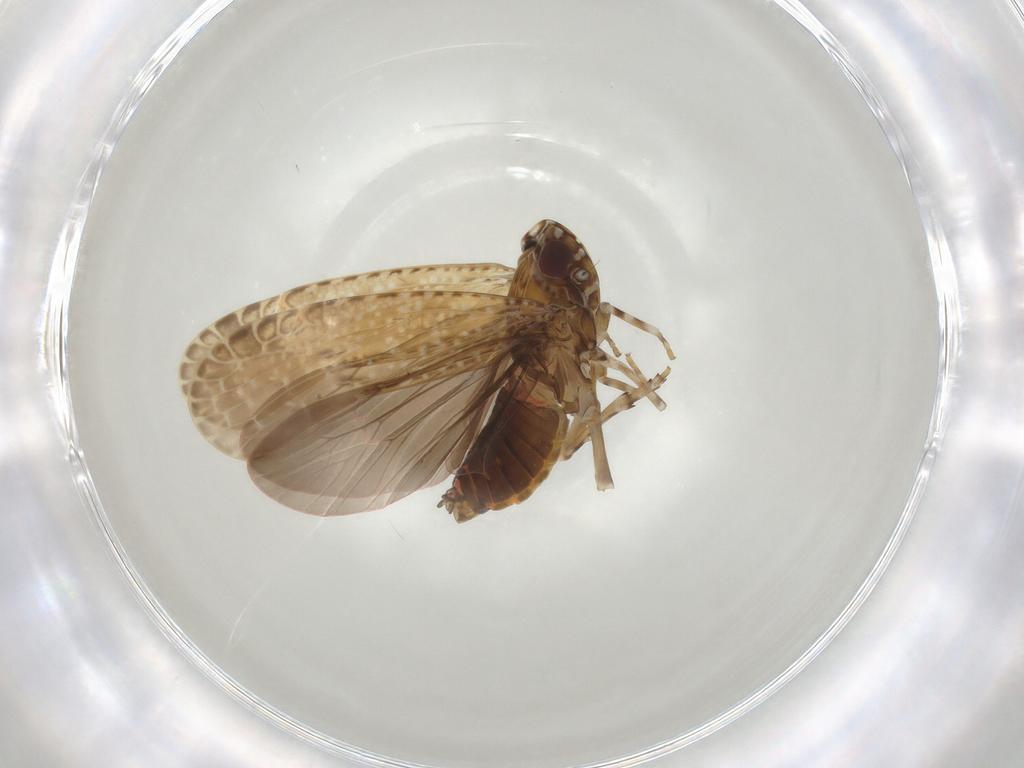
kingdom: Animalia
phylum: Arthropoda
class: Insecta
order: Hemiptera
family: Achilidae
